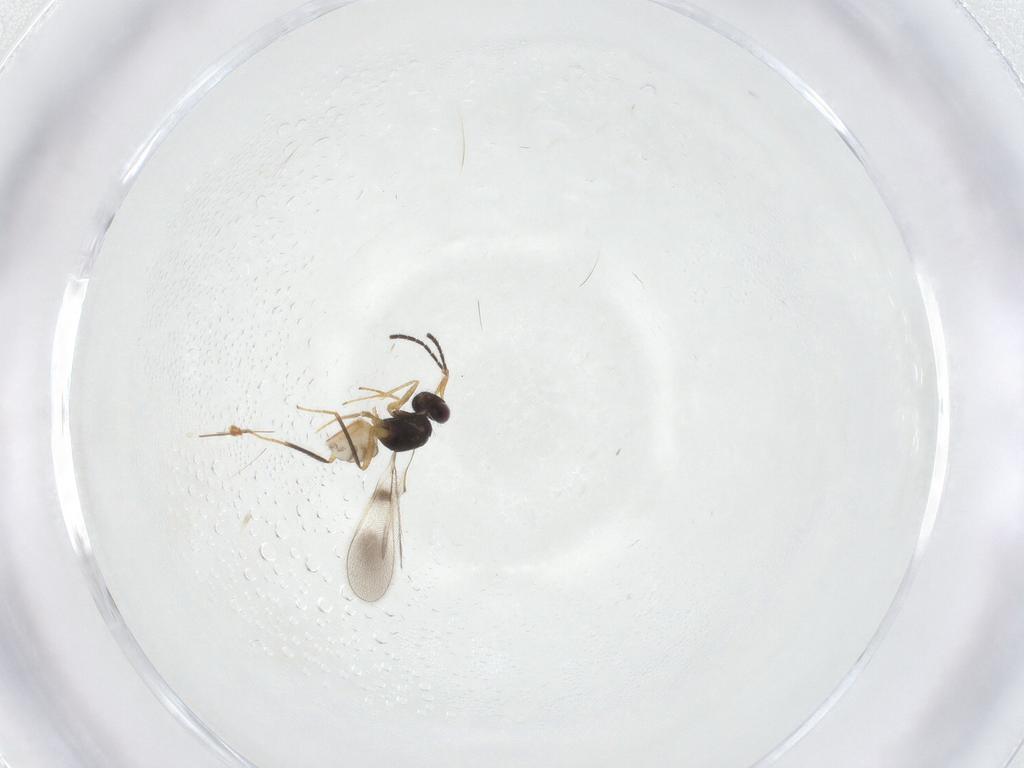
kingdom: Animalia
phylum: Arthropoda
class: Insecta
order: Hymenoptera
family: Mymaridae
